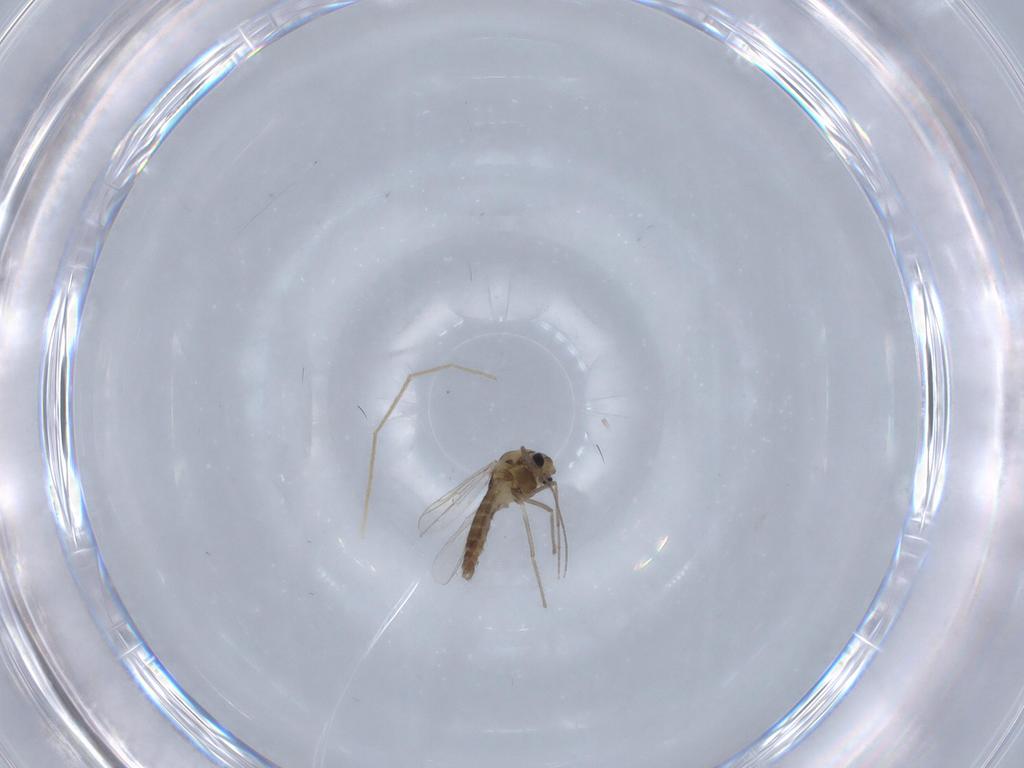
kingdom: Animalia
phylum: Arthropoda
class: Insecta
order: Diptera
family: Chironomidae
